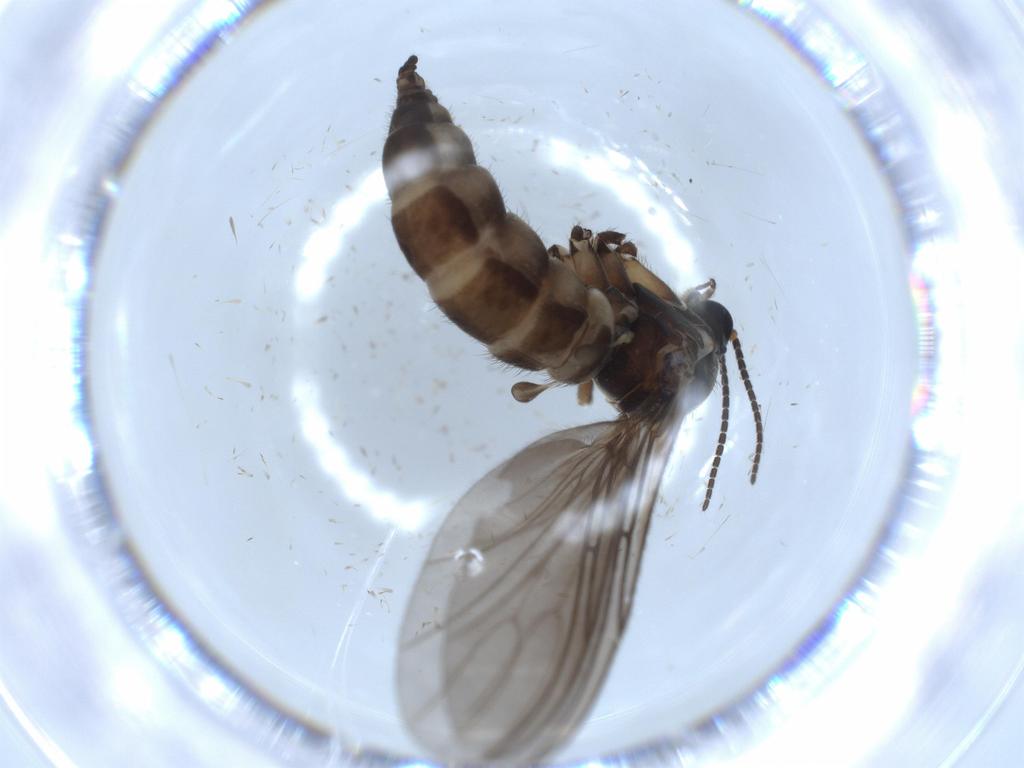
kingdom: Animalia
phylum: Arthropoda
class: Insecta
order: Diptera
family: Sciaridae
